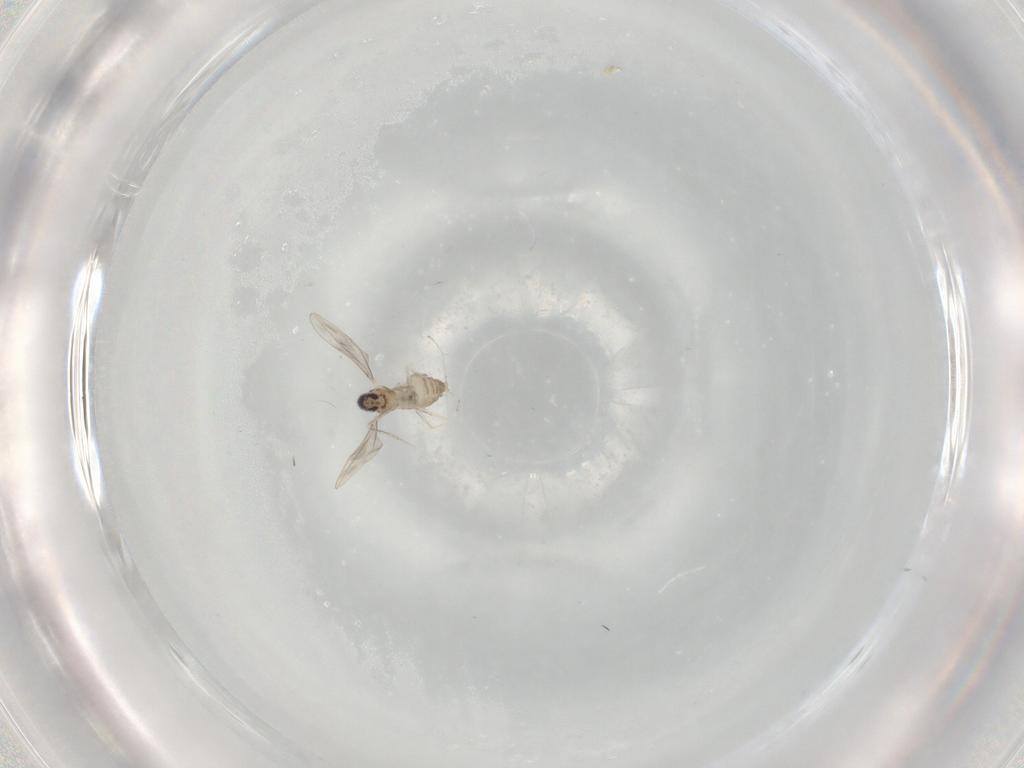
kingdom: Animalia
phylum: Arthropoda
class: Insecta
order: Diptera
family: Cecidomyiidae
